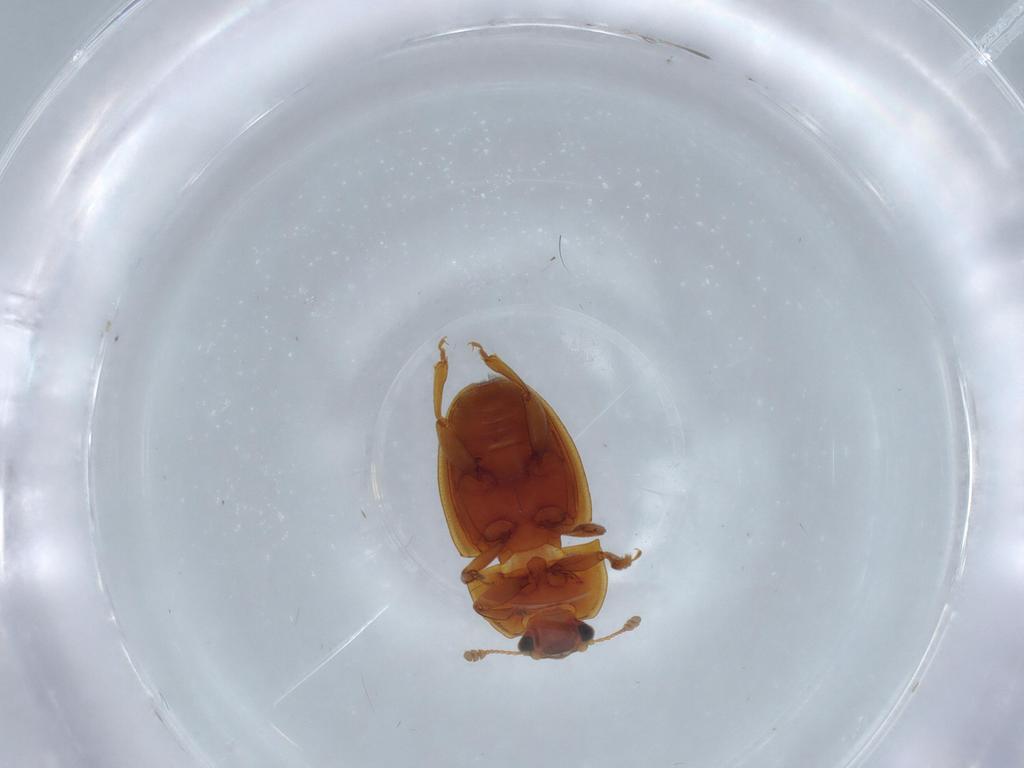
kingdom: Animalia
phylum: Arthropoda
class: Insecta
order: Coleoptera
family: Nitidulidae
